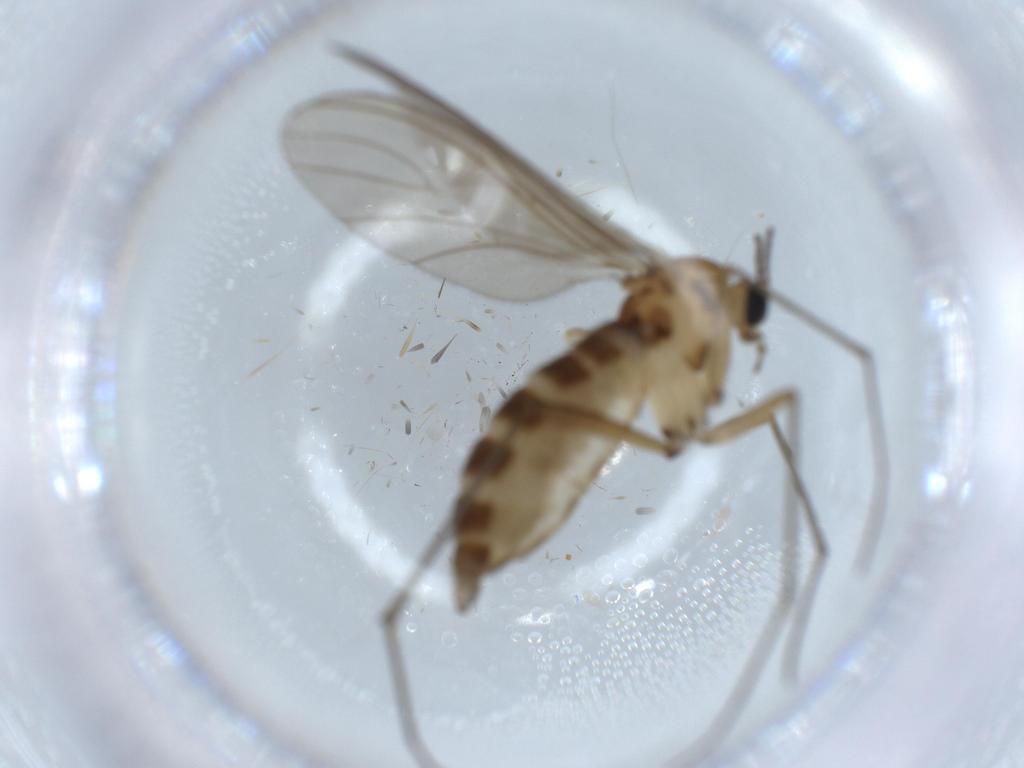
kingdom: Animalia
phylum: Arthropoda
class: Insecta
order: Diptera
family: Sciaridae
